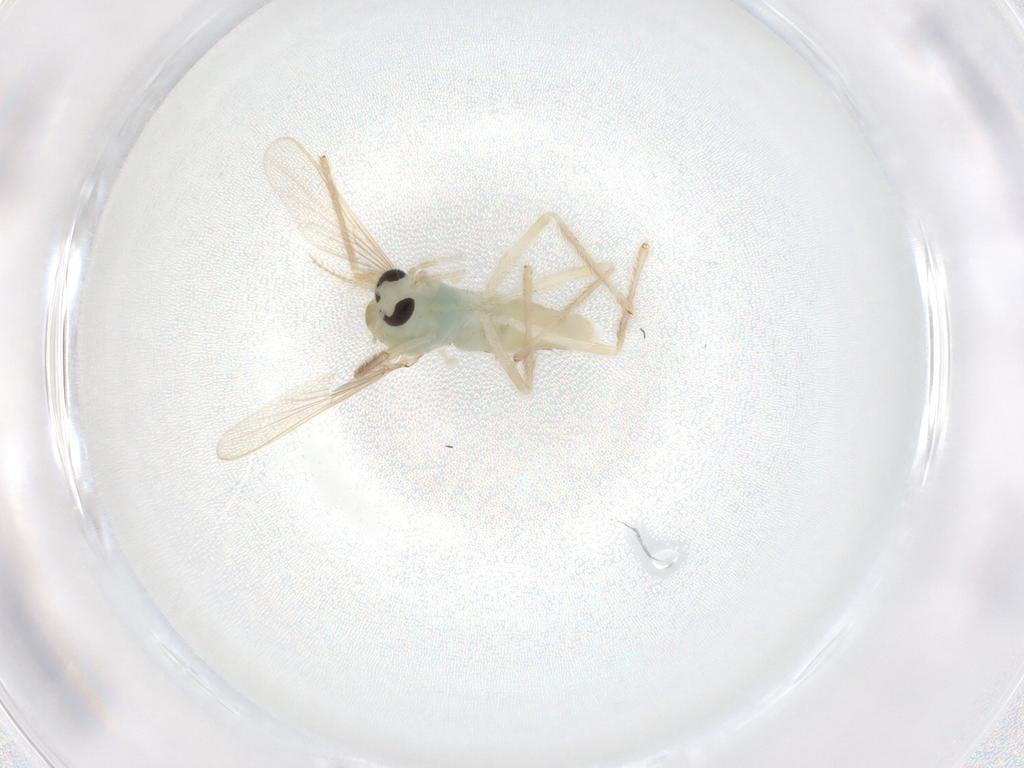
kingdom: Animalia
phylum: Arthropoda
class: Insecta
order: Diptera
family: Chironomidae
